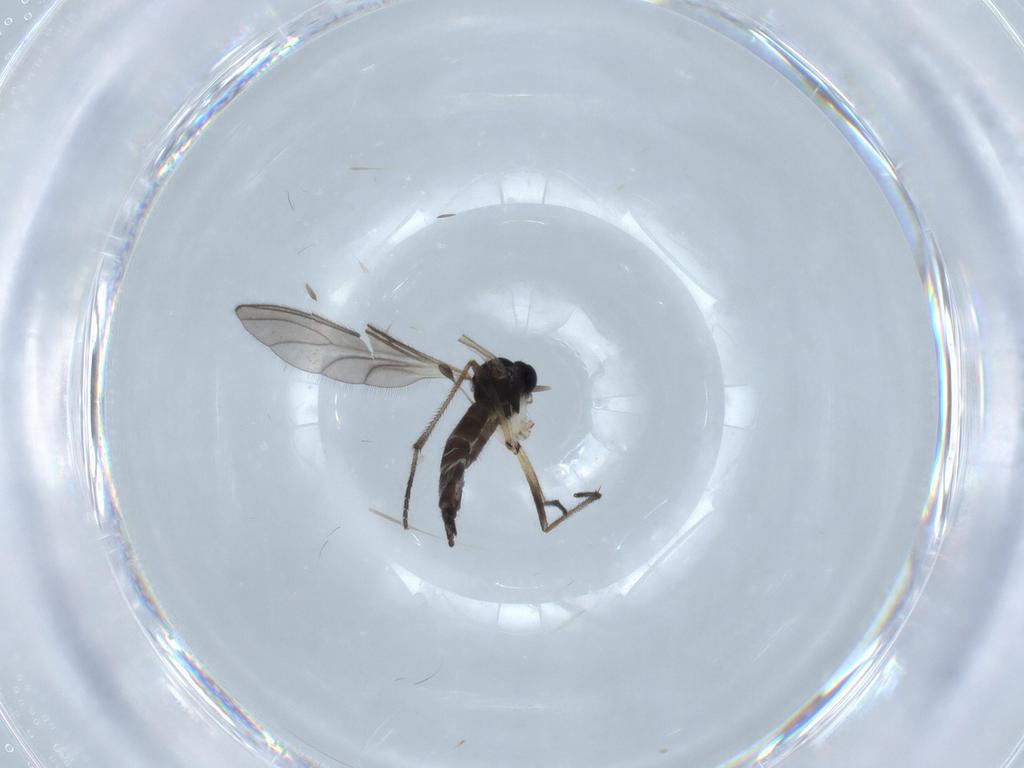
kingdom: Animalia
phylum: Arthropoda
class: Insecta
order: Diptera
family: Sciaridae
